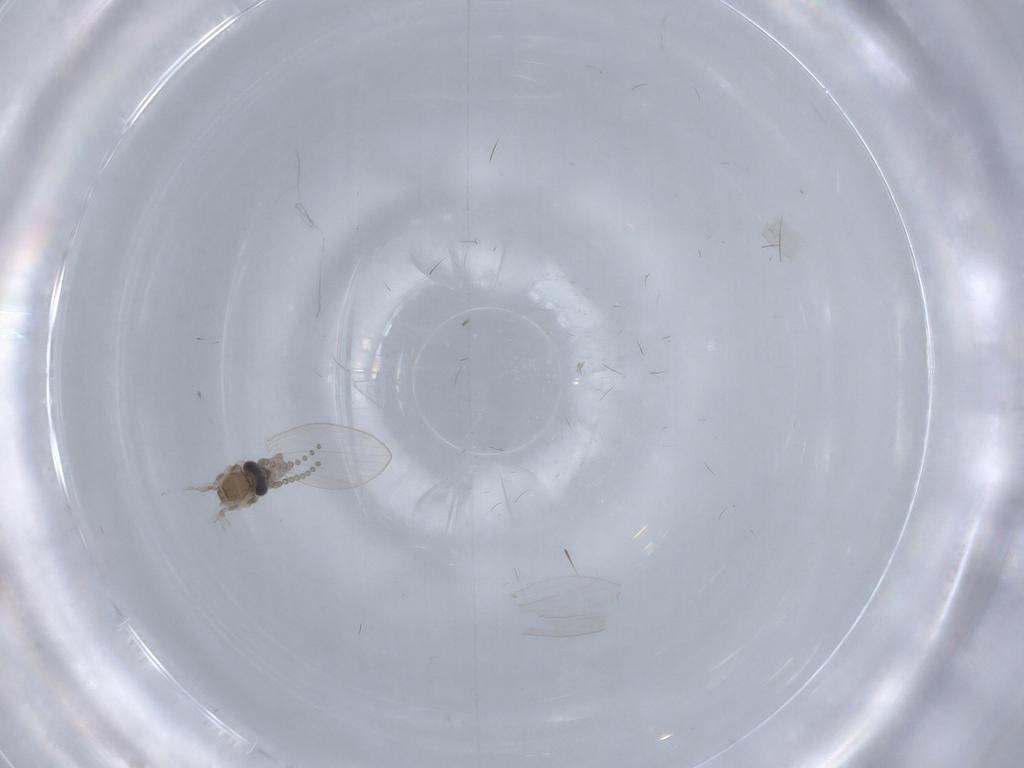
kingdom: Animalia
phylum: Arthropoda
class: Insecta
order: Diptera
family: Psychodidae
